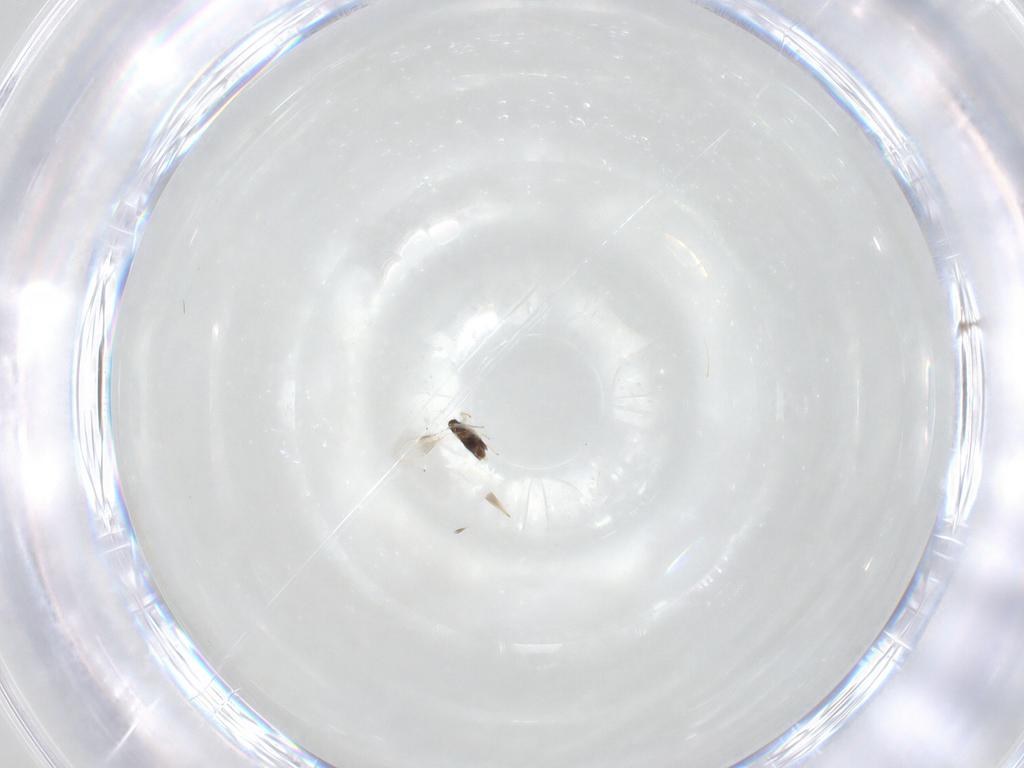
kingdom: Animalia
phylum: Arthropoda
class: Insecta
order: Hymenoptera
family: Aphelinidae
